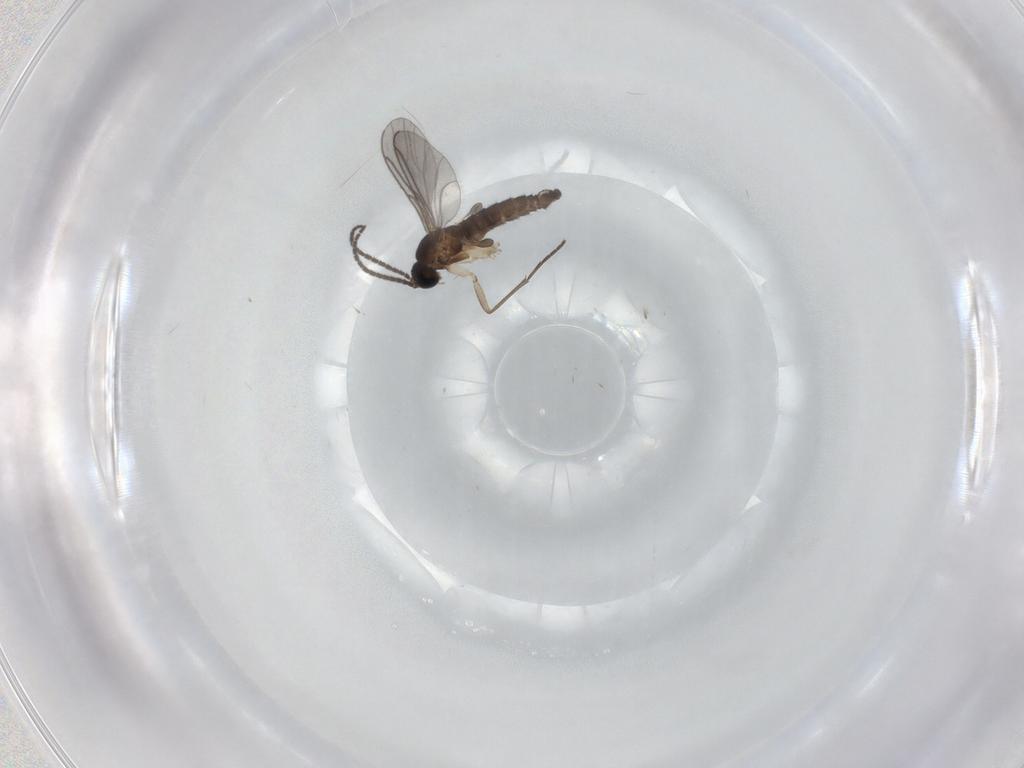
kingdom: Animalia
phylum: Arthropoda
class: Insecta
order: Diptera
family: Sciaridae
